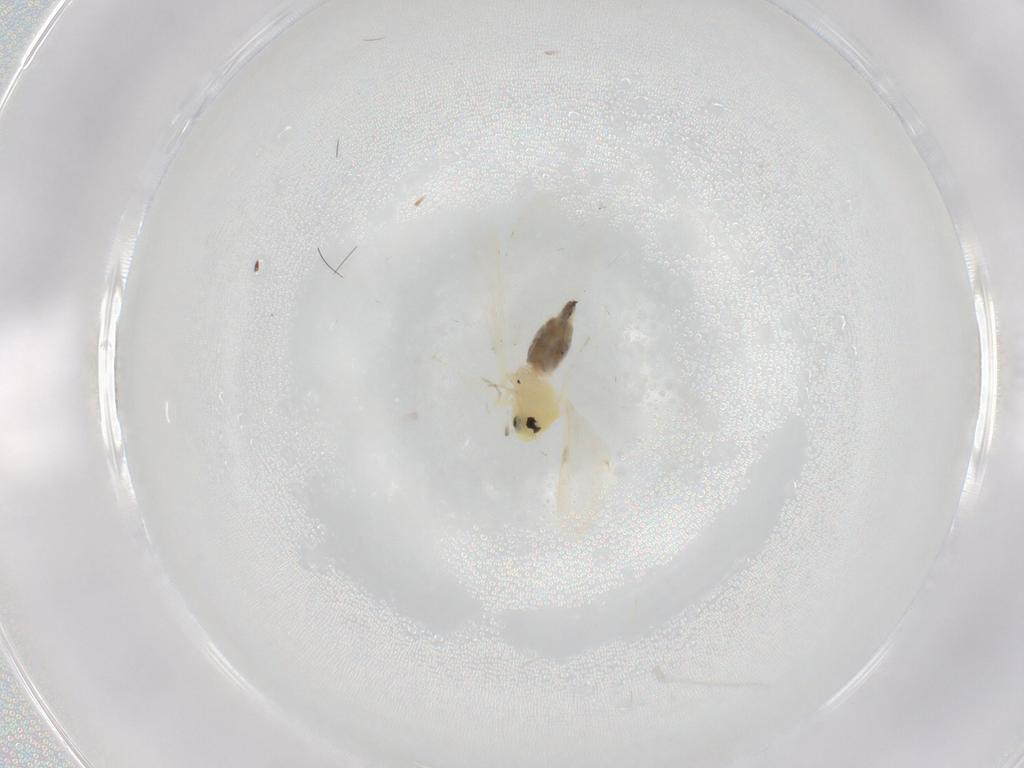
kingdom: Animalia
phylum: Arthropoda
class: Insecta
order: Hemiptera
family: Aleyrodidae
